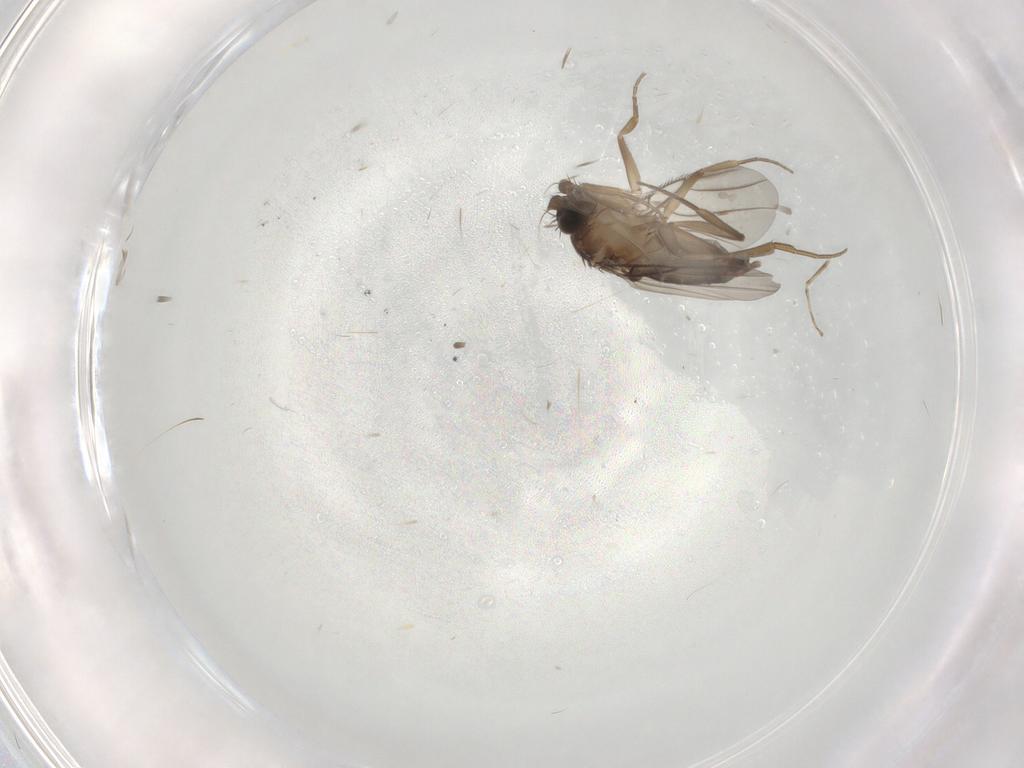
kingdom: Animalia
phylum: Arthropoda
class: Insecta
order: Diptera
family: Phoridae
